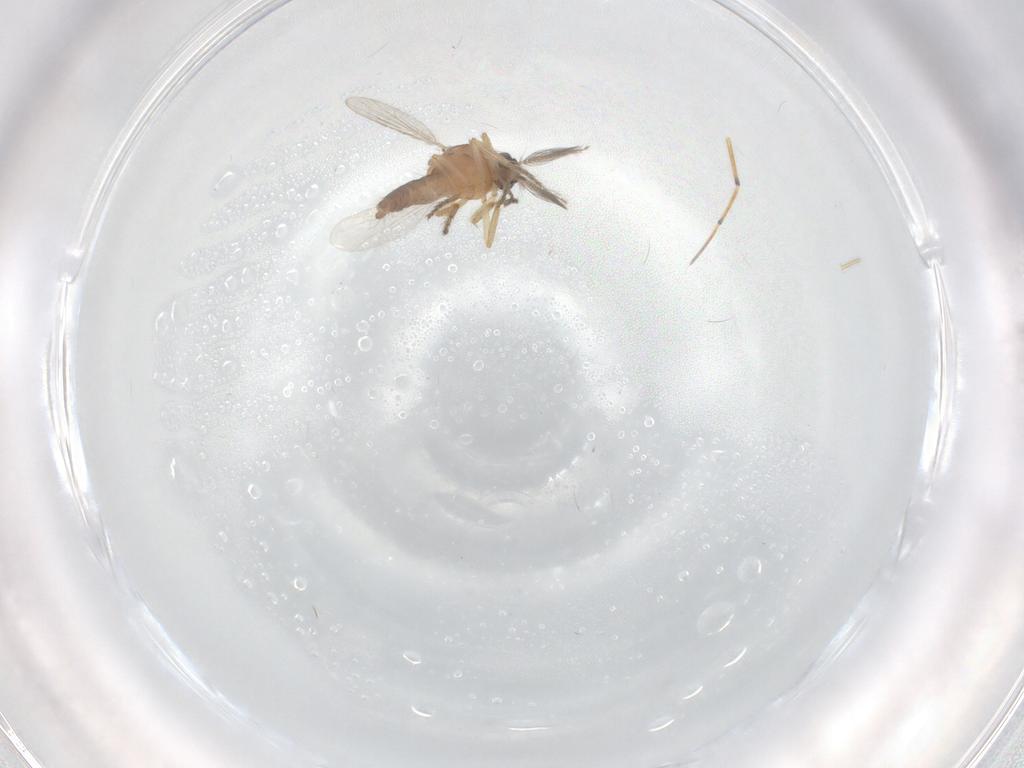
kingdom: Animalia
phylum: Arthropoda
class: Insecta
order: Diptera
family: Ceratopogonidae
